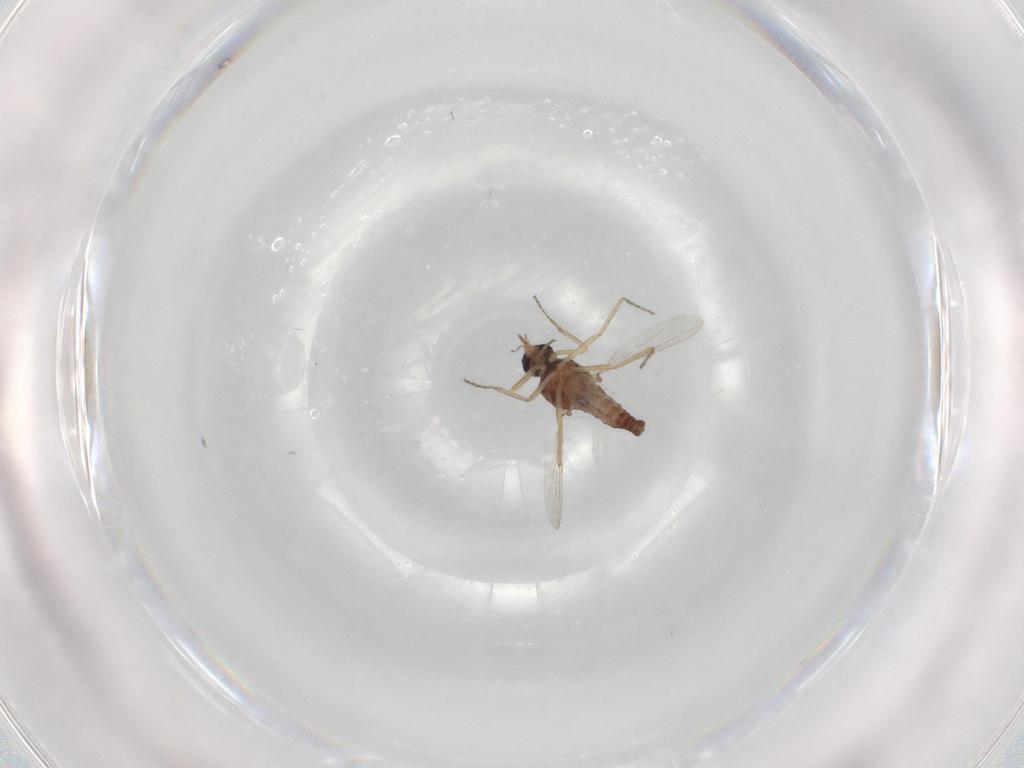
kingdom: Animalia
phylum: Arthropoda
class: Insecta
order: Diptera
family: Ceratopogonidae
